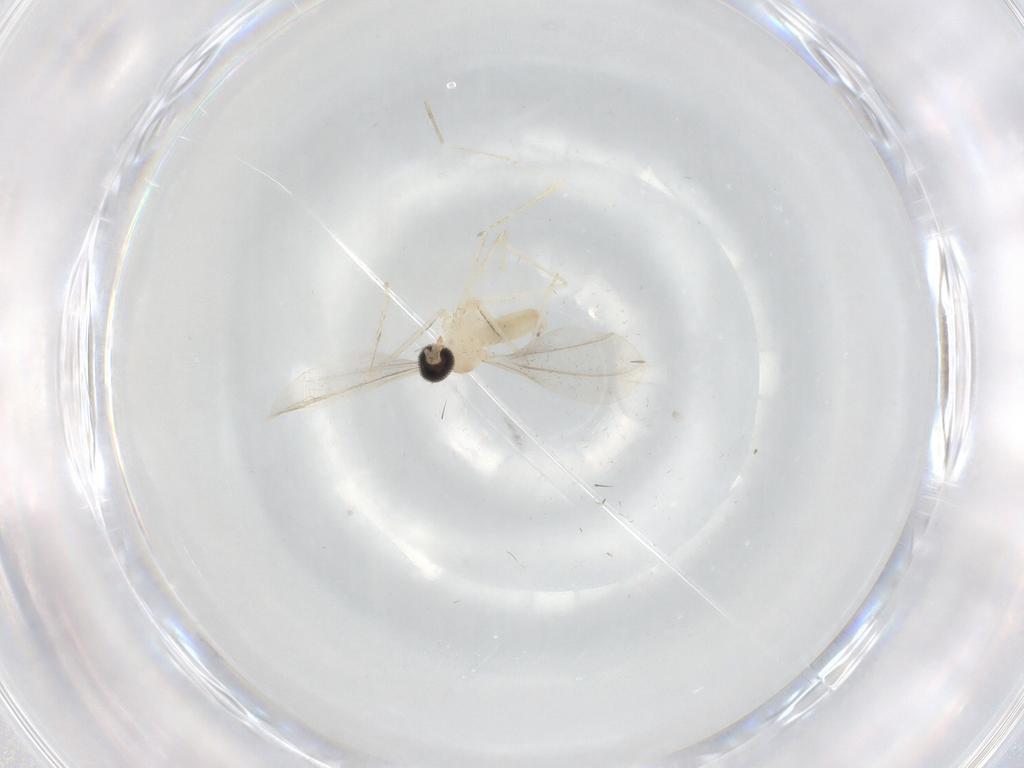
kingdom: Animalia
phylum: Arthropoda
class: Insecta
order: Diptera
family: Cecidomyiidae
